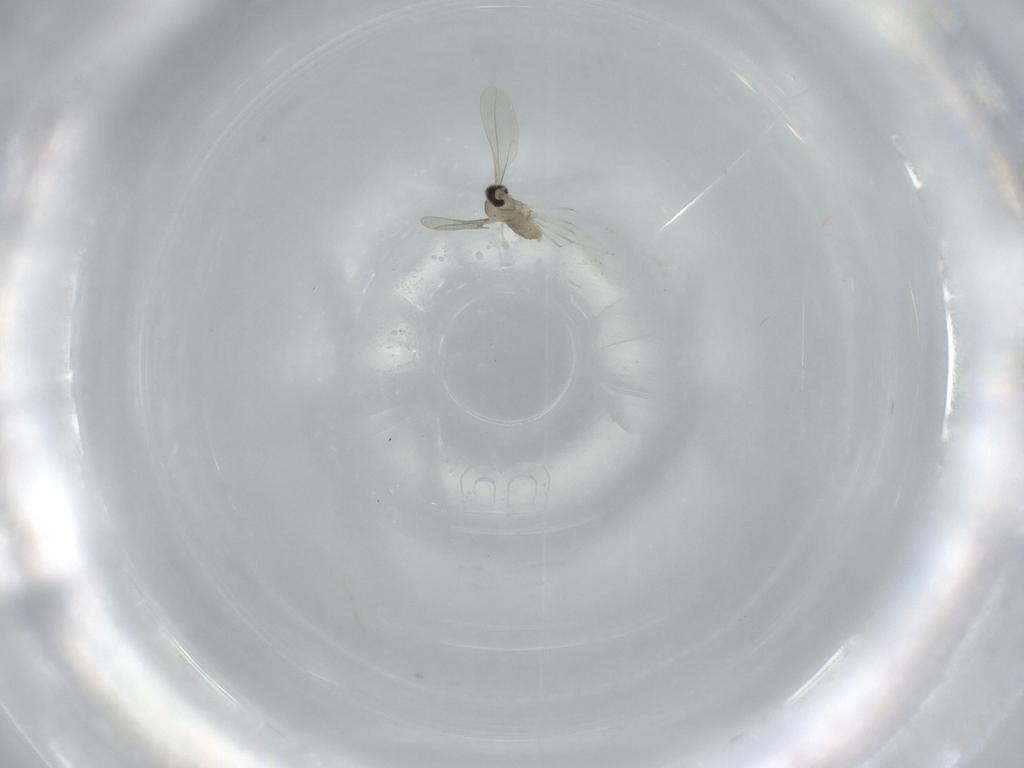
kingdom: Animalia
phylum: Arthropoda
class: Insecta
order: Diptera
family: Cecidomyiidae
